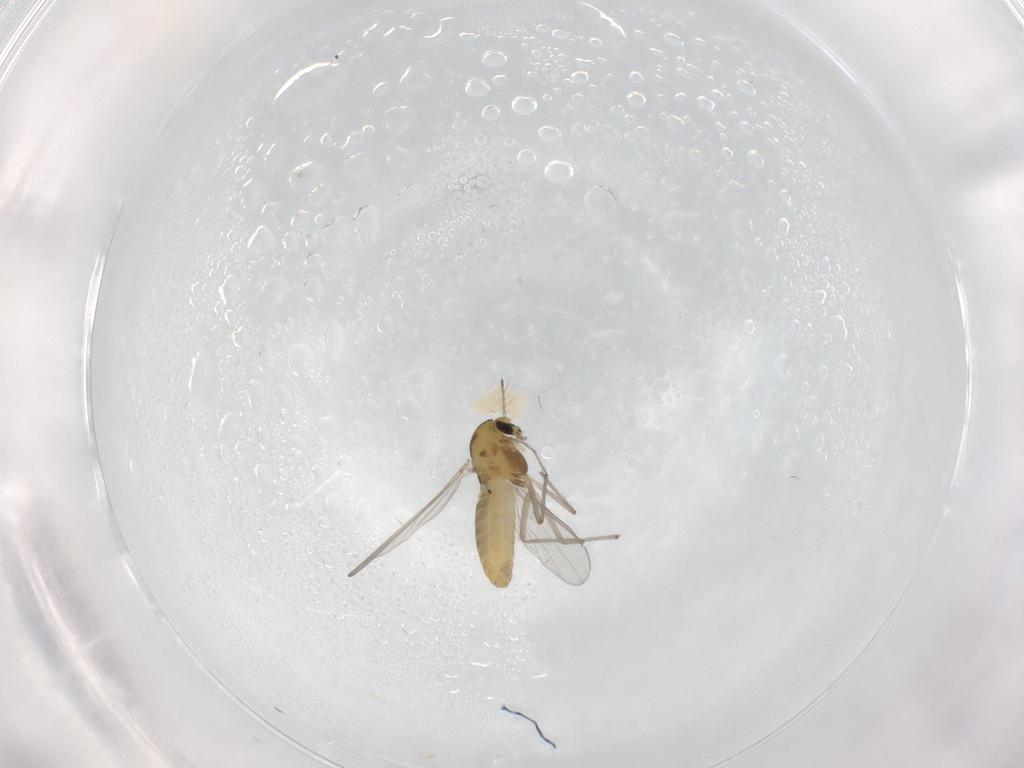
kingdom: Animalia
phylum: Arthropoda
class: Insecta
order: Diptera
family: Chironomidae
